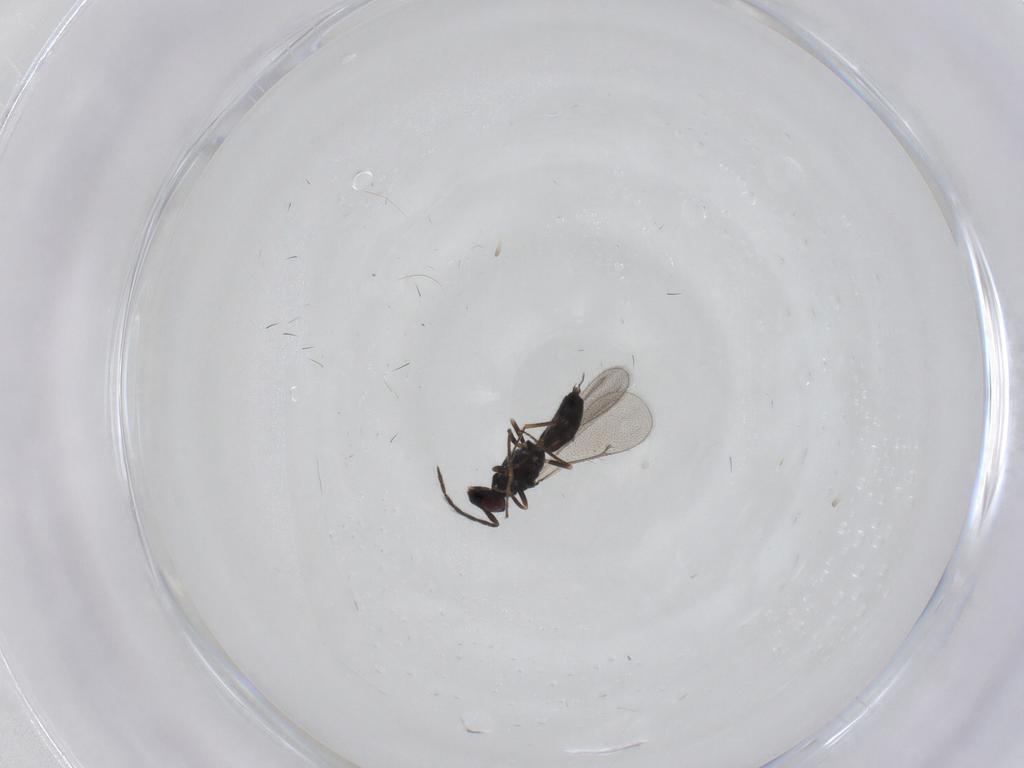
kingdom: Animalia
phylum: Arthropoda
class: Insecta
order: Hymenoptera
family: Eulophidae
